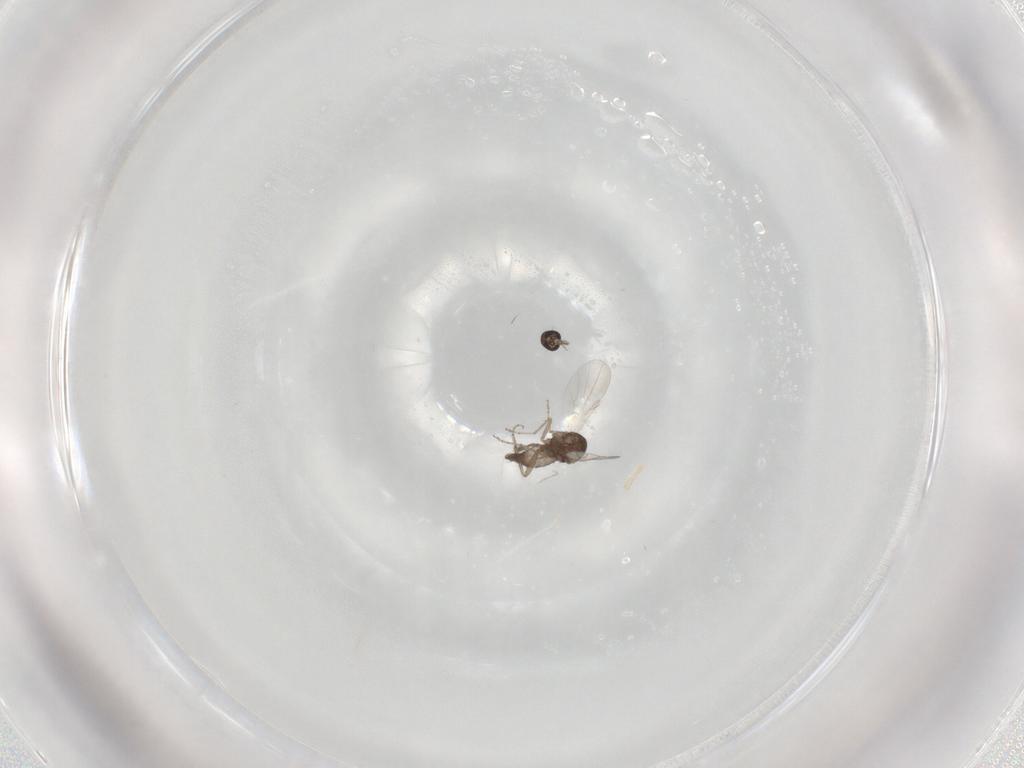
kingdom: Animalia
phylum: Arthropoda
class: Insecta
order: Diptera
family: Ceratopogonidae
